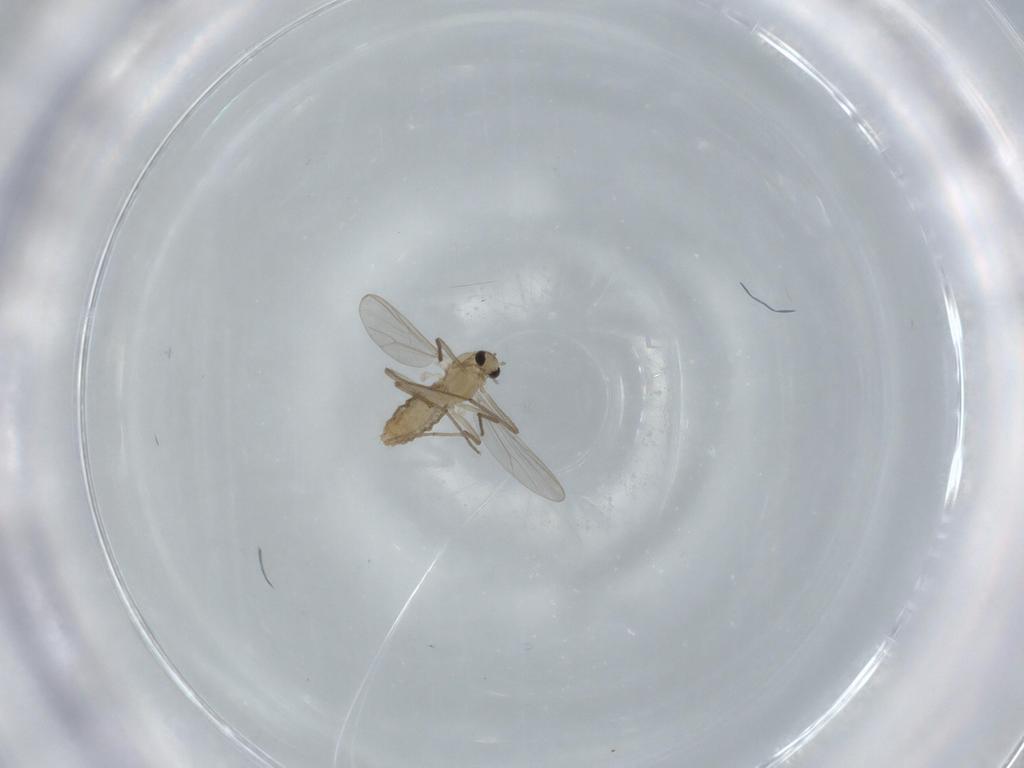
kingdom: Animalia
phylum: Arthropoda
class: Insecta
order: Diptera
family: Chironomidae
